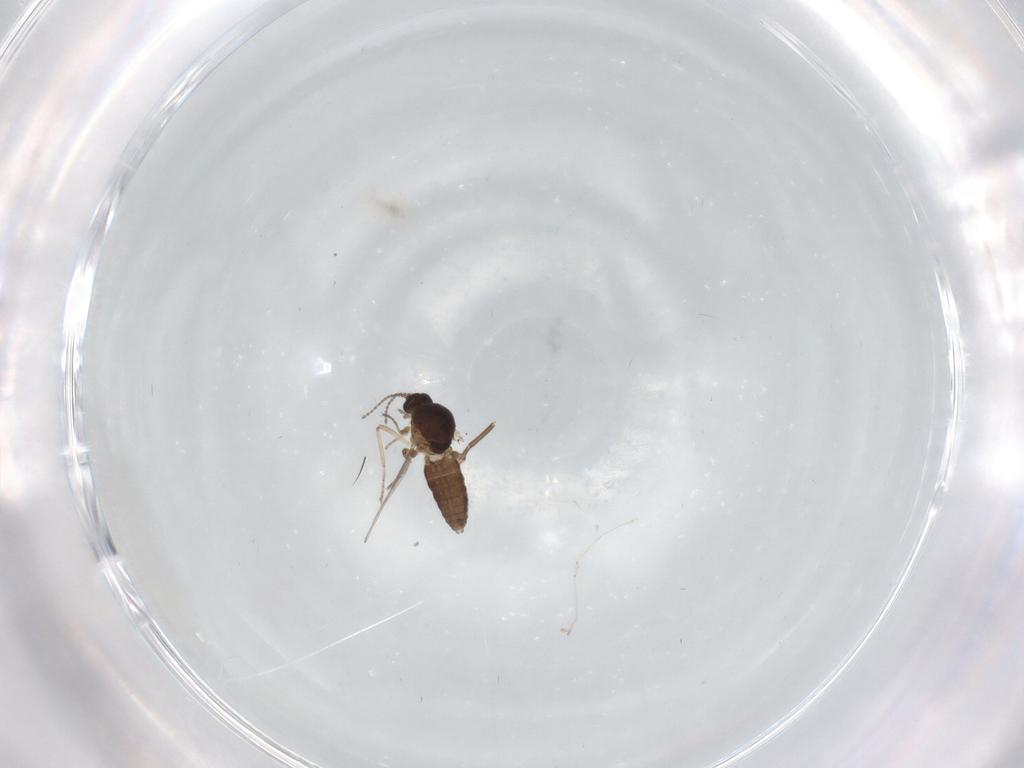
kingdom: Animalia
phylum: Arthropoda
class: Insecta
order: Diptera
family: Ceratopogonidae
